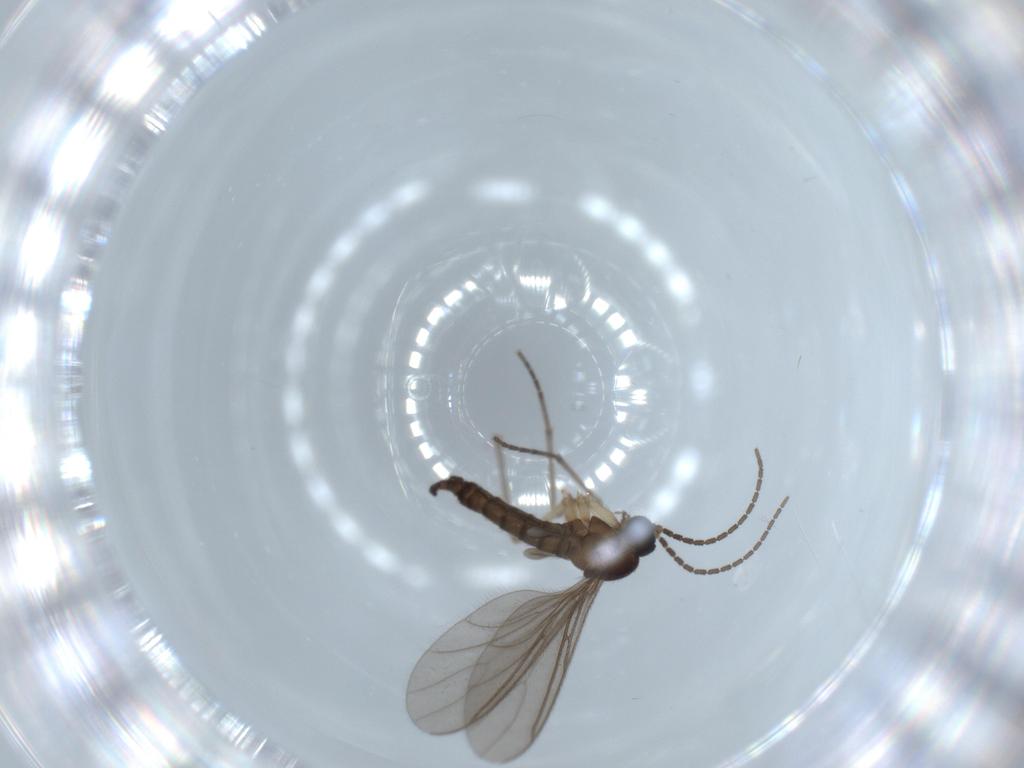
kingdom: Animalia
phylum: Arthropoda
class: Insecta
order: Diptera
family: Sciaridae
